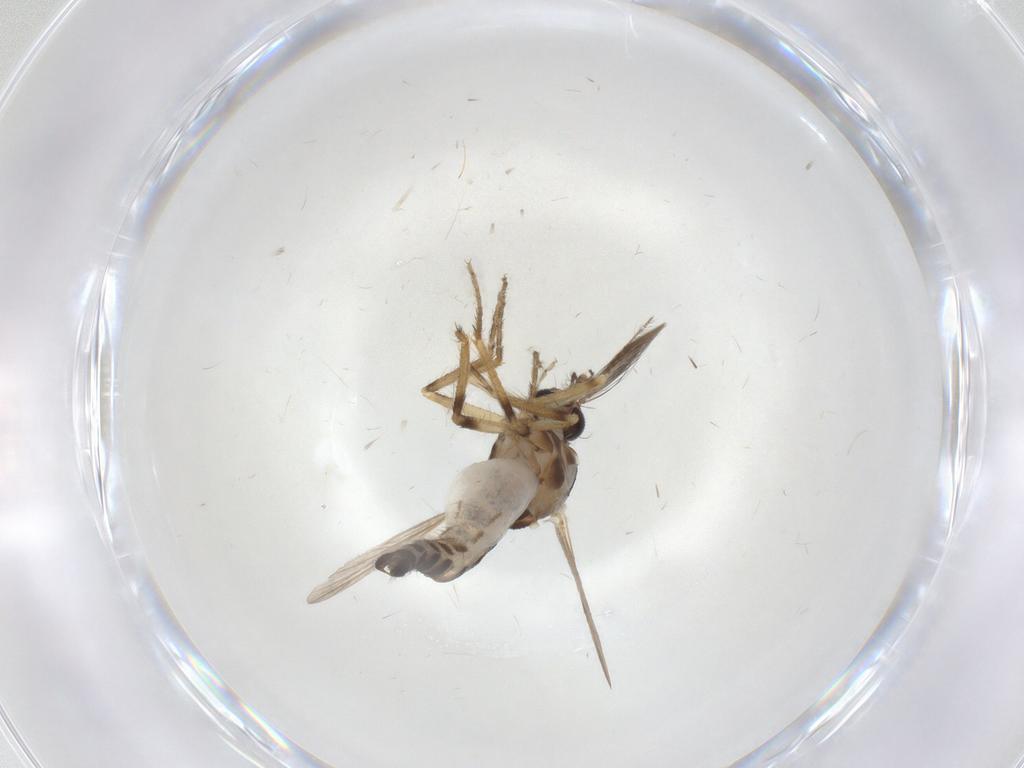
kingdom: Animalia
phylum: Arthropoda
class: Insecta
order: Diptera
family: Ceratopogonidae
